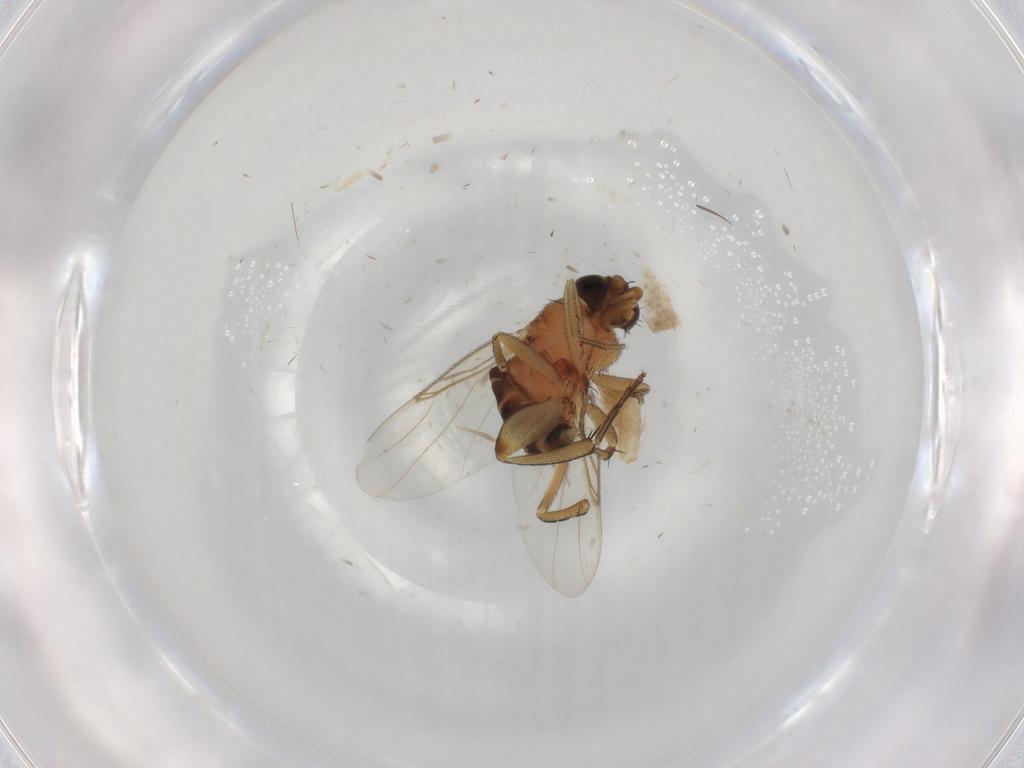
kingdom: Animalia
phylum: Arthropoda
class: Insecta
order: Diptera
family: Phoridae
